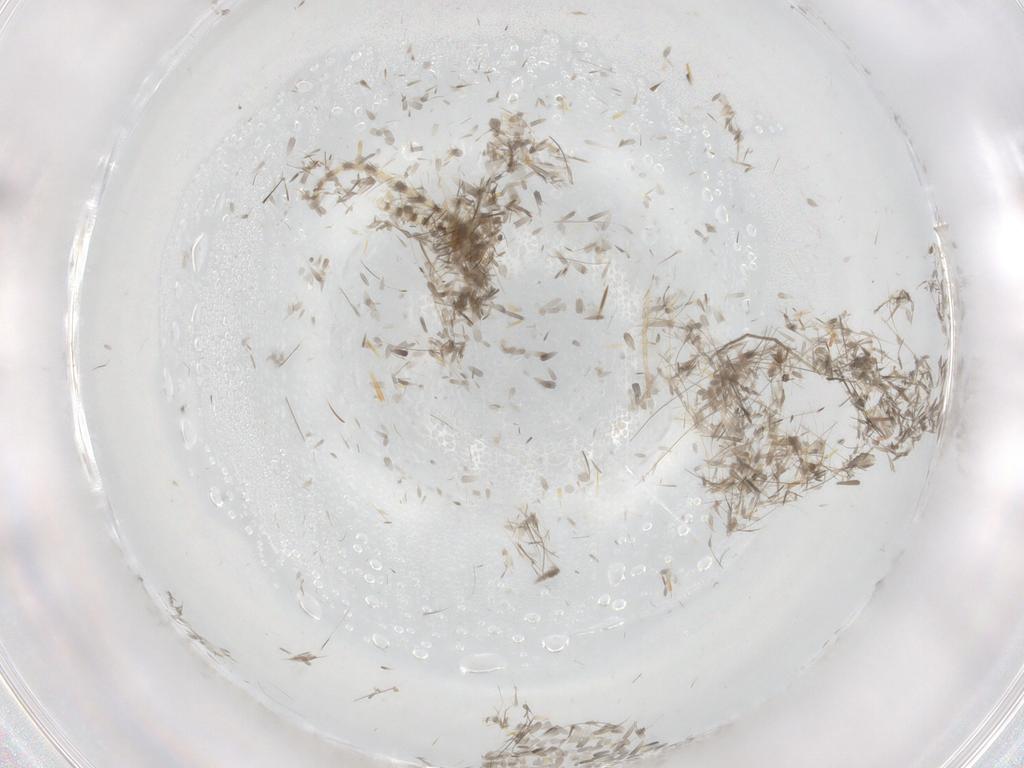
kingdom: Animalia
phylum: Arthropoda
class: Insecta
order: Diptera
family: Chironomidae
